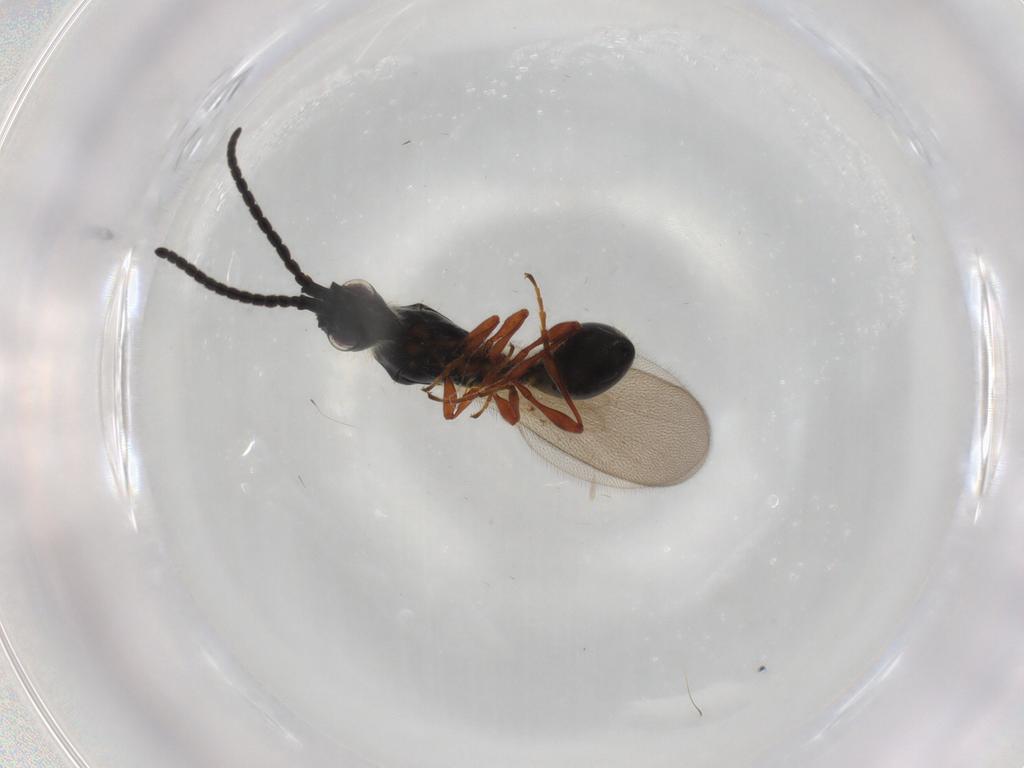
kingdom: Animalia
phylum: Arthropoda
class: Insecta
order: Hymenoptera
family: Diapriidae
